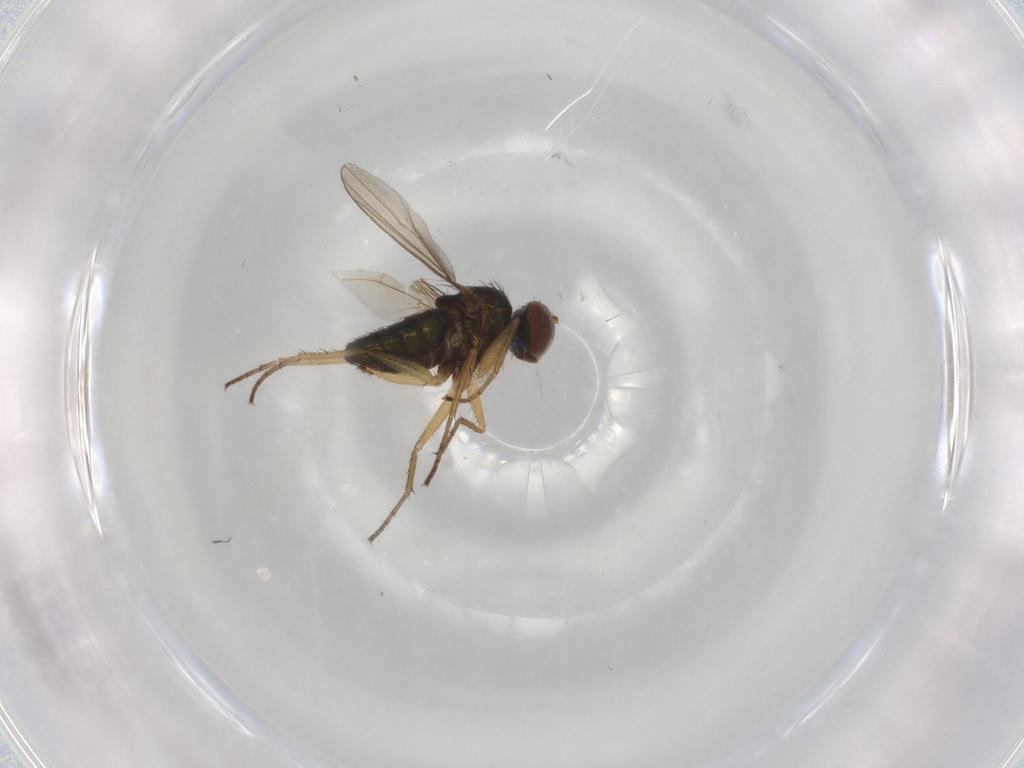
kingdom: Animalia
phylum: Arthropoda
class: Insecta
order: Diptera
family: Dolichopodidae
